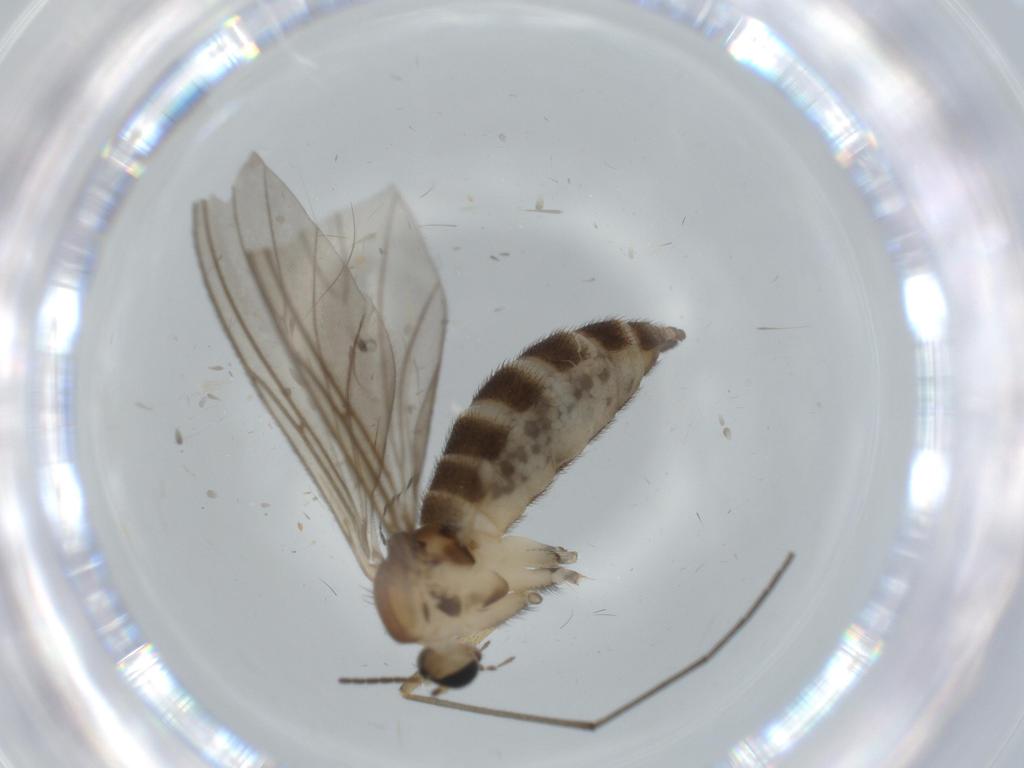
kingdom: Animalia
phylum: Arthropoda
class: Insecta
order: Diptera
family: Sciaridae
